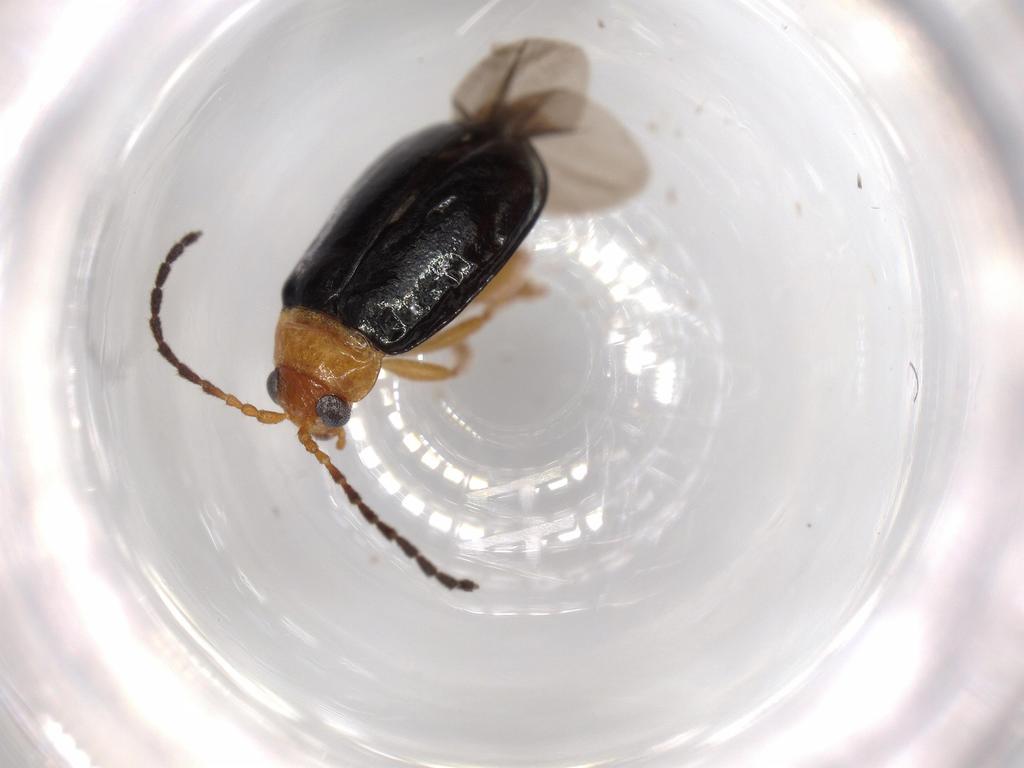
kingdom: Animalia
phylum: Arthropoda
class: Insecta
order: Coleoptera
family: Chrysomelidae
